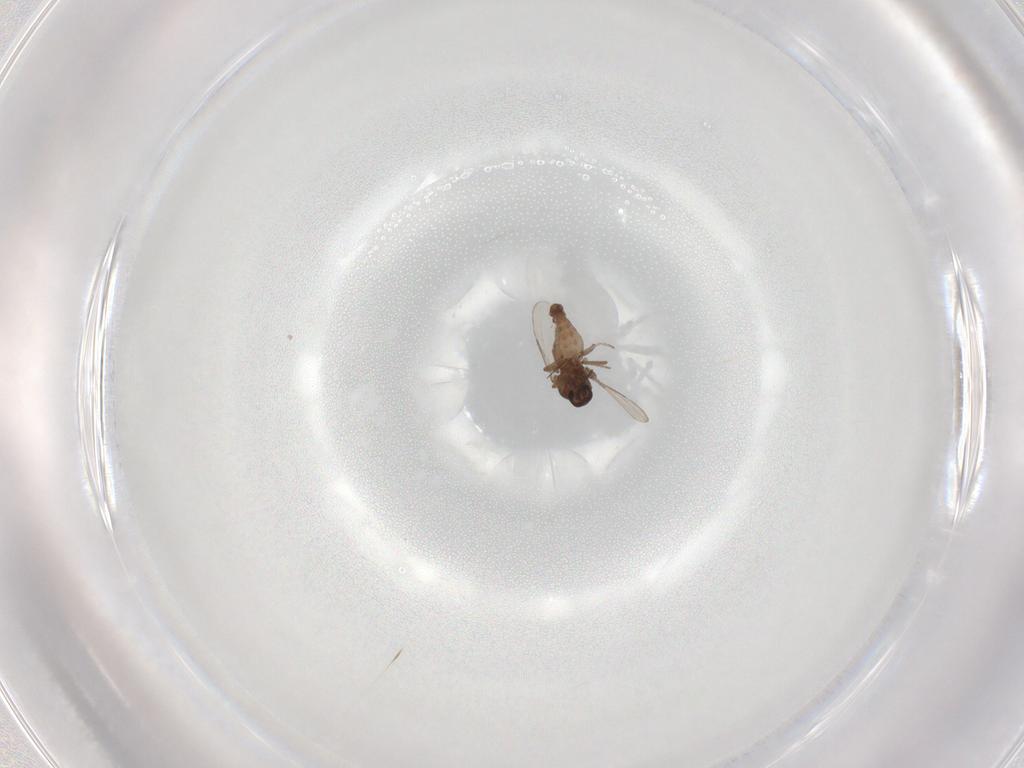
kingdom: Animalia
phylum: Arthropoda
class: Insecta
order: Diptera
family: Ceratopogonidae
